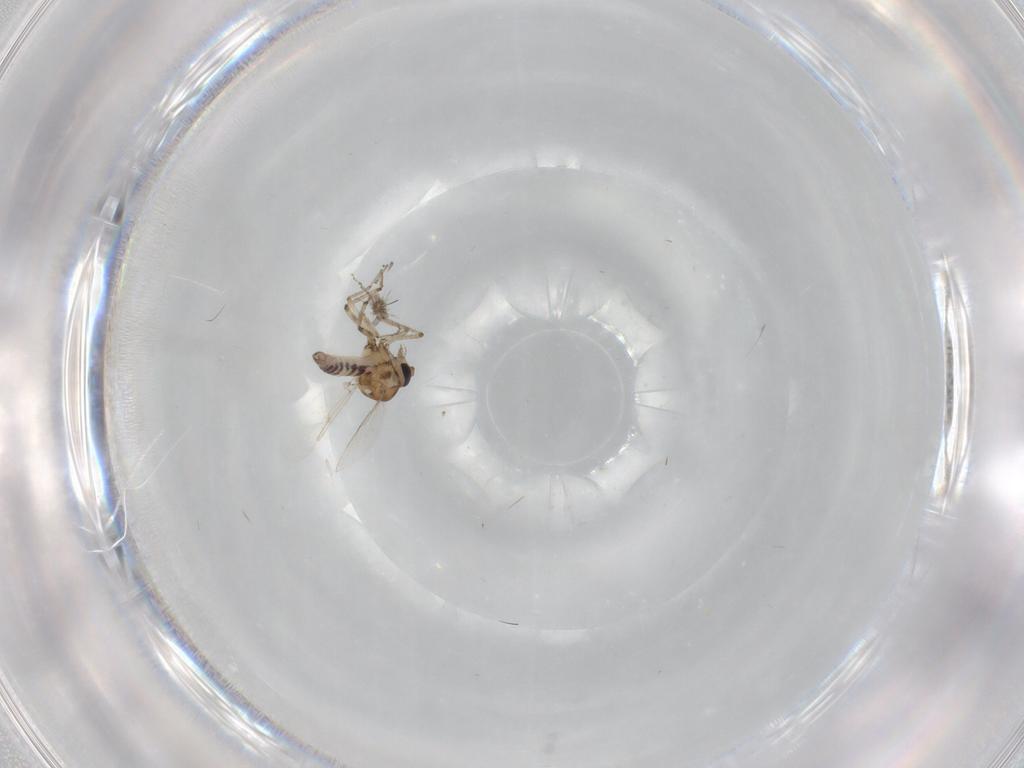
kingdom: Animalia
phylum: Arthropoda
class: Insecta
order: Diptera
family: Ceratopogonidae
